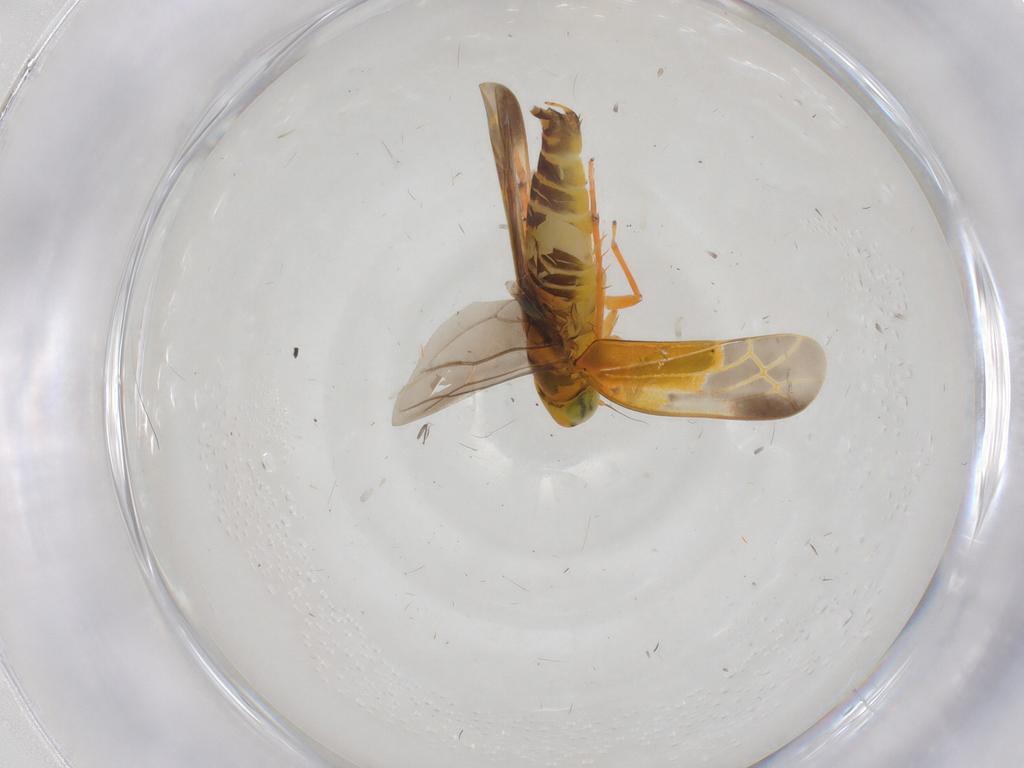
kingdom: Animalia
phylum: Arthropoda
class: Insecta
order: Hemiptera
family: Cicadellidae
